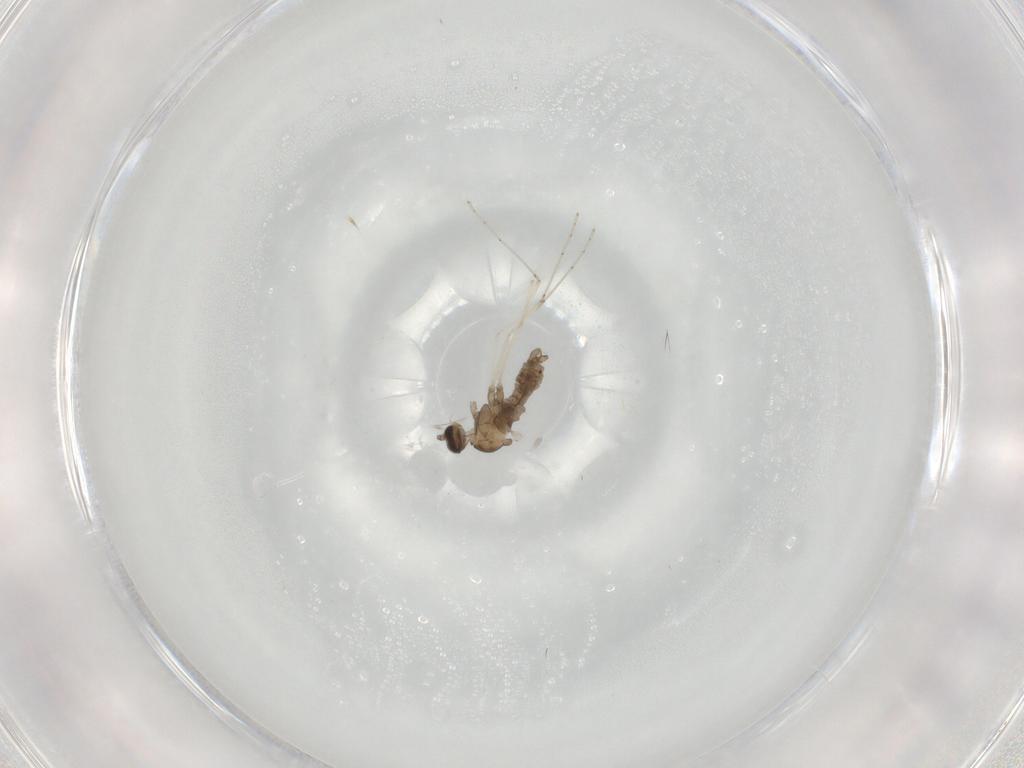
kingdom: Animalia
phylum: Arthropoda
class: Insecta
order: Diptera
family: Cecidomyiidae
